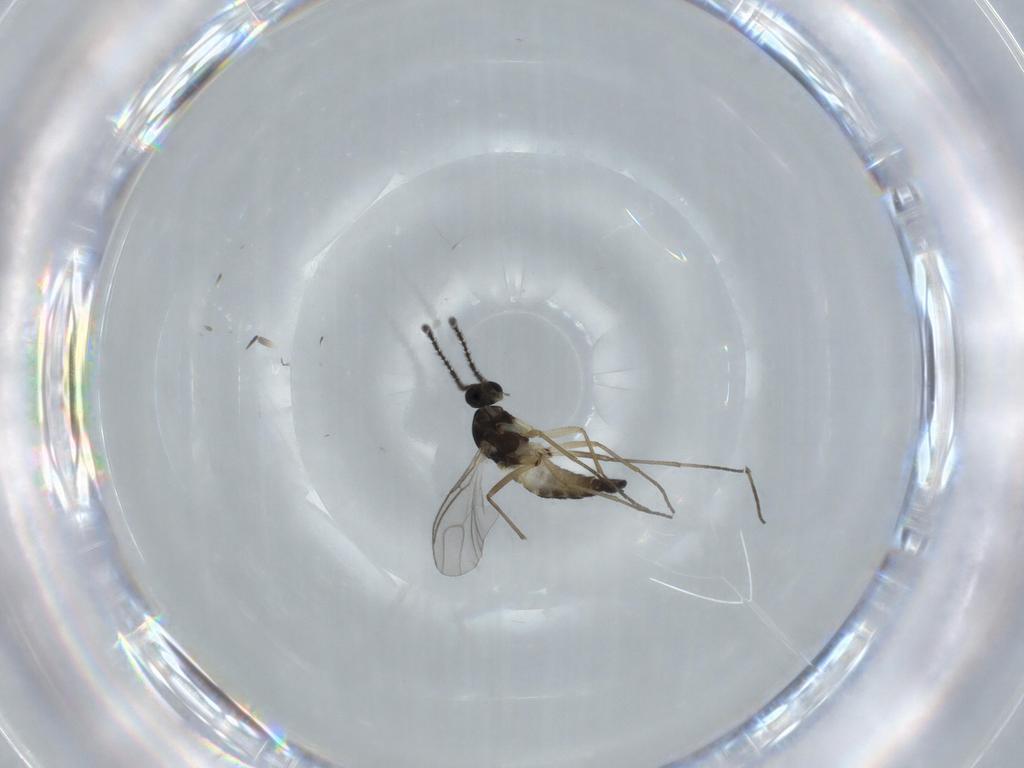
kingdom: Animalia
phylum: Arthropoda
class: Insecta
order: Diptera
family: Sciaridae
